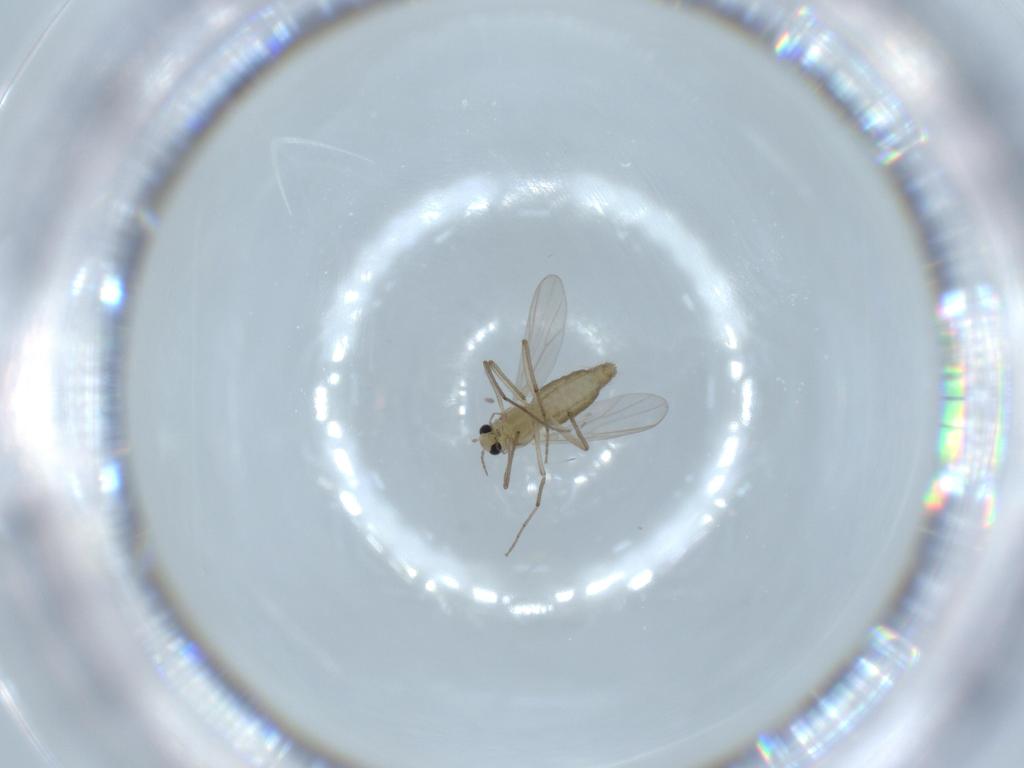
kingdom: Animalia
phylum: Arthropoda
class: Insecta
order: Diptera
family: Chironomidae
